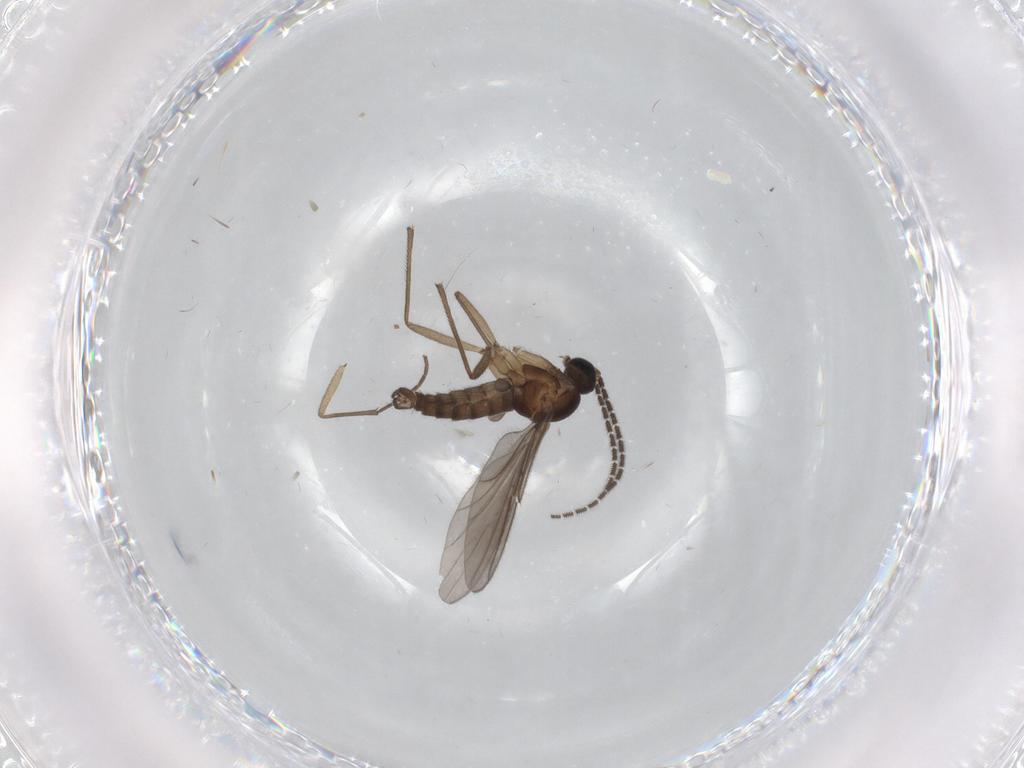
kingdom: Animalia
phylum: Arthropoda
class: Insecta
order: Diptera
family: Sciaridae
